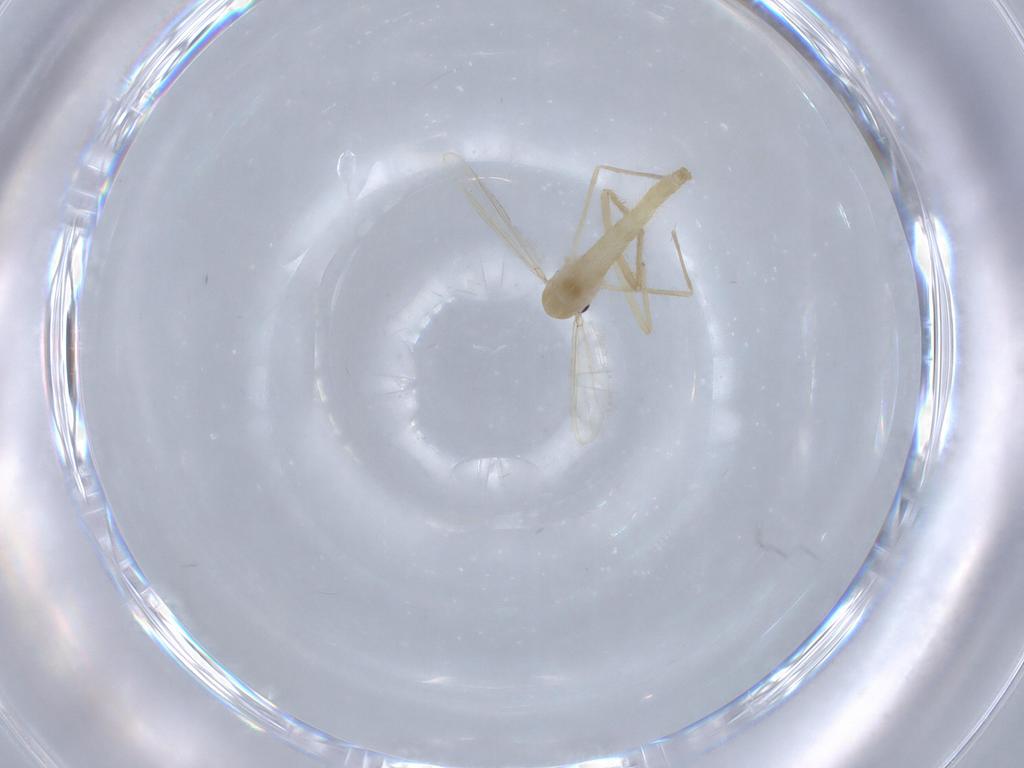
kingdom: Animalia
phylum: Arthropoda
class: Insecta
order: Diptera
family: Chironomidae
